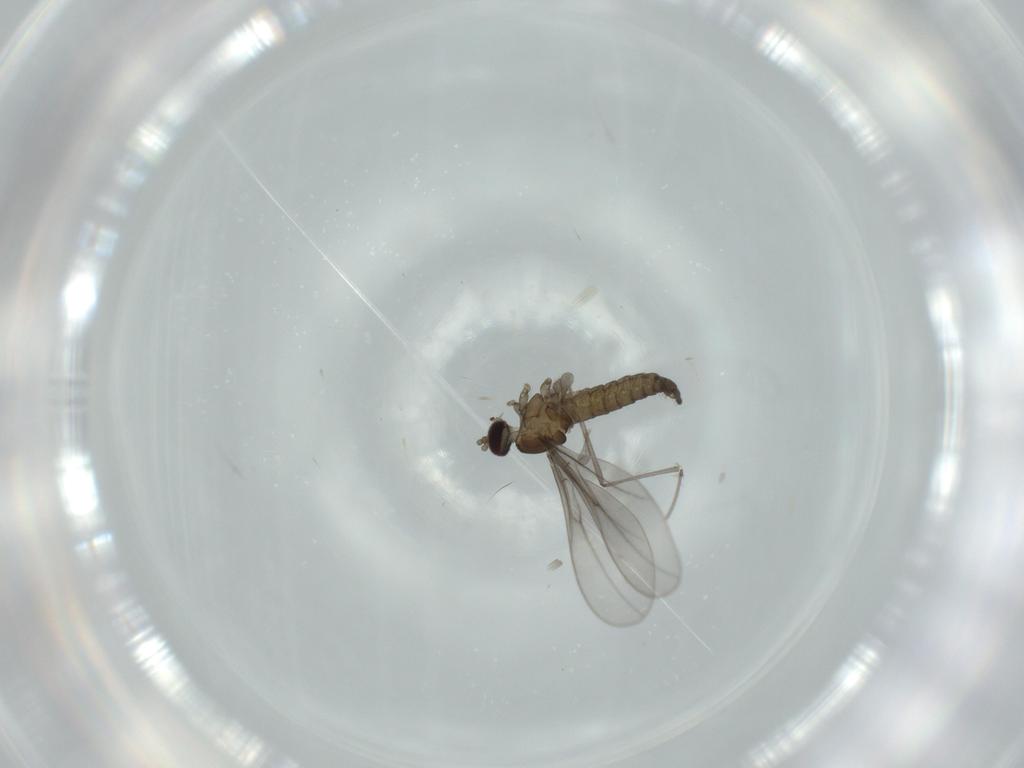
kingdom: Animalia
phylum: Arthropoda
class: Insecta
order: Diptera
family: Cecidomyiidae
